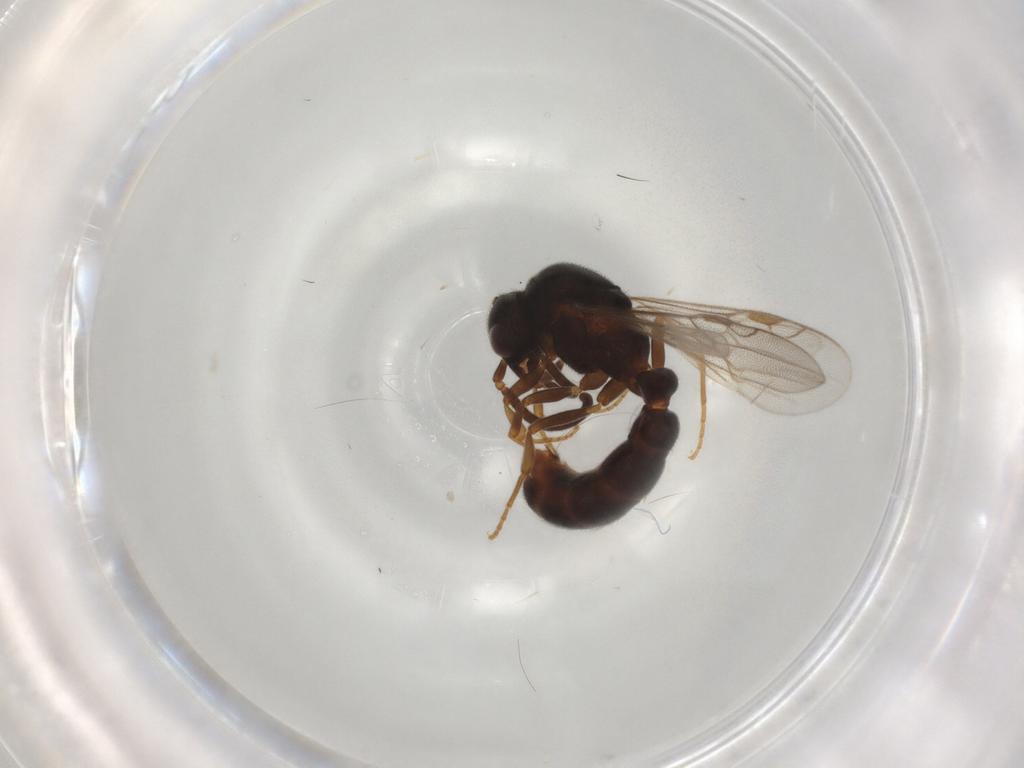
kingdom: Animalia
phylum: Arthropoda
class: Insecta
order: Hymenoptera
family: Formicidae
